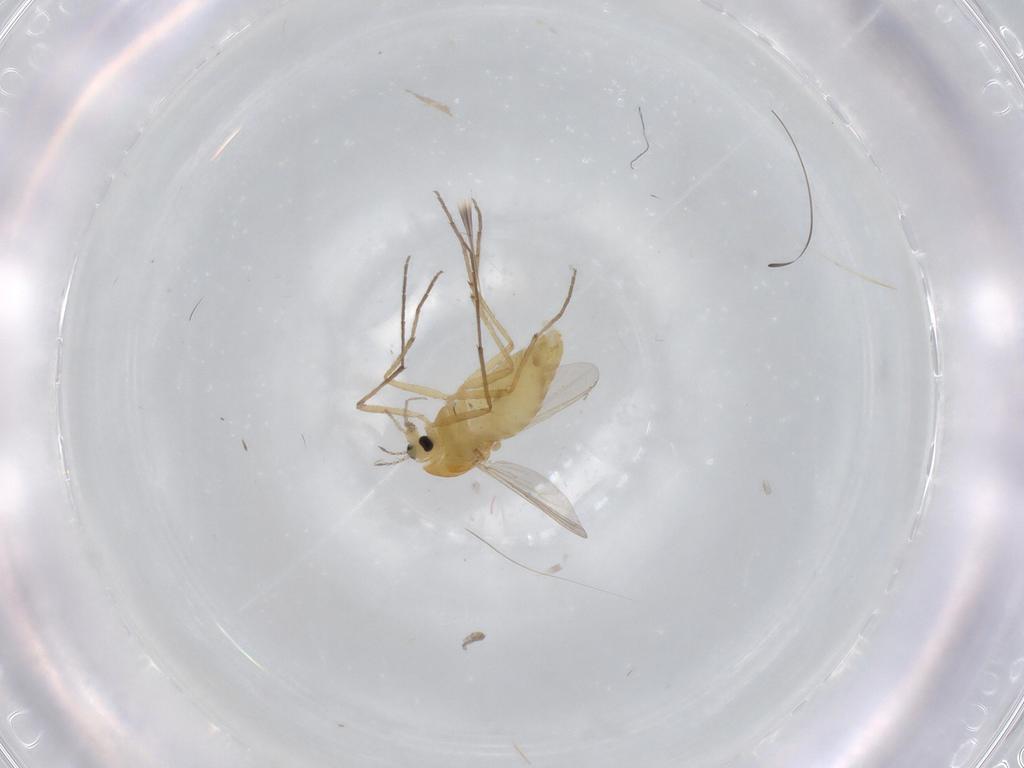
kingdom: Animalia
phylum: Arthropoda
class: Insecta
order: Diptera
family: Chironomidae
